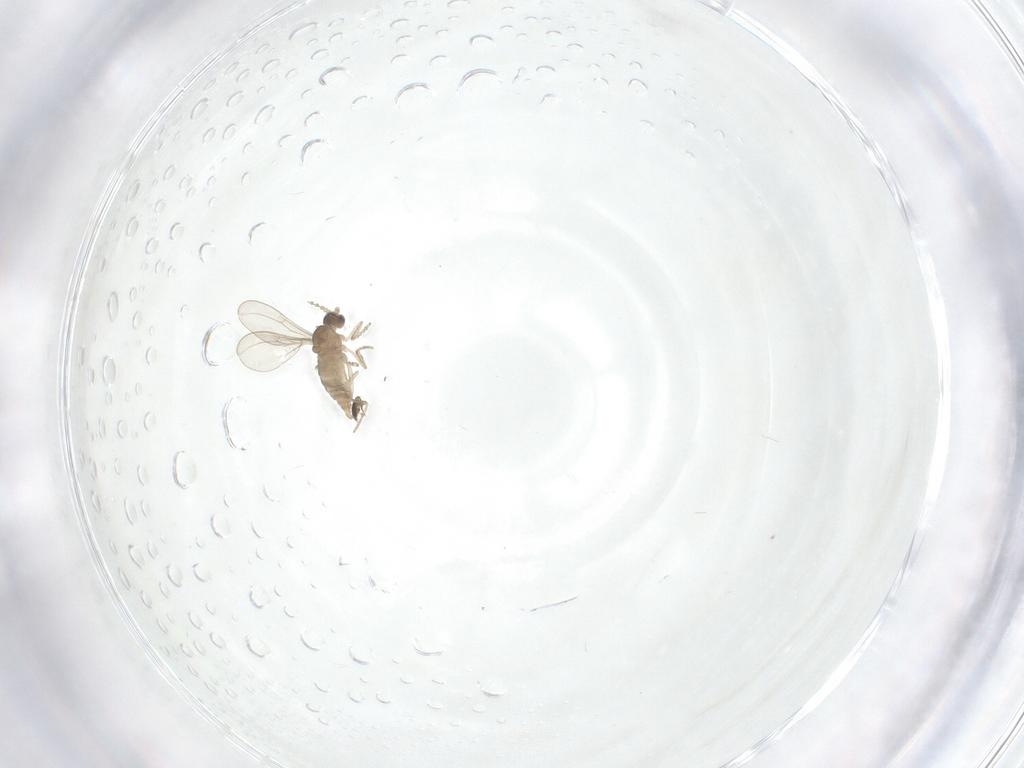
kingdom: Animalia
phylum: Arthropoda
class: Insecta
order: Diptera
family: Cecidomyiidae
